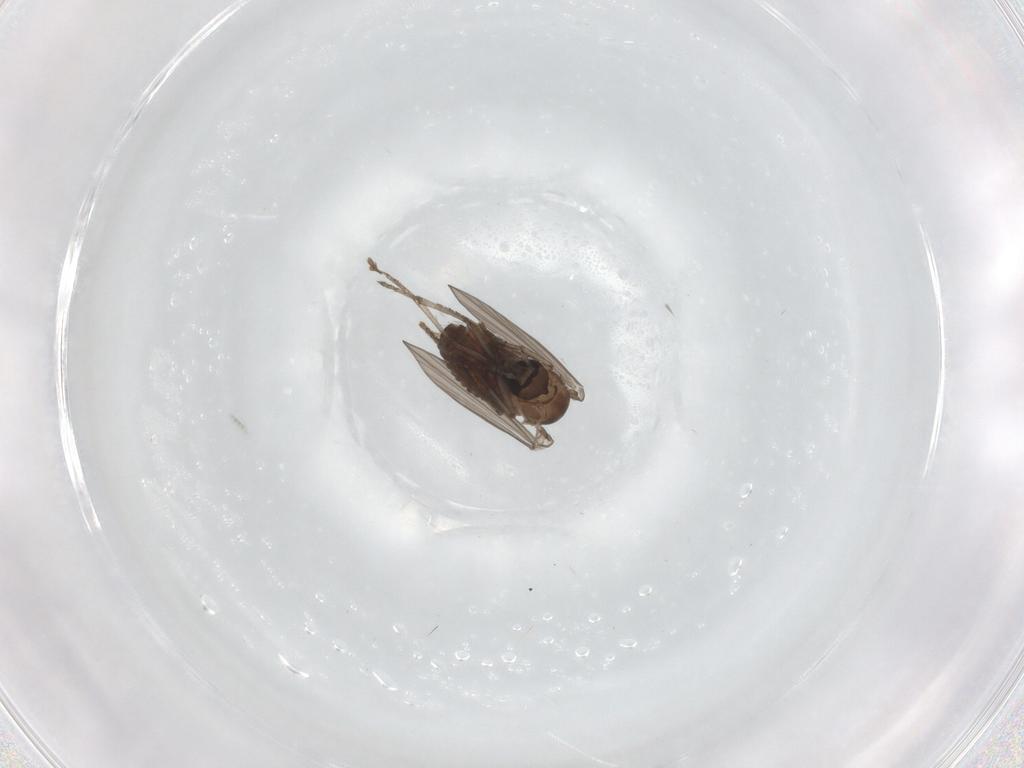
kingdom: Animalia
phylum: Arthropoda
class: Insecta
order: Diptera
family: Psychodidae
